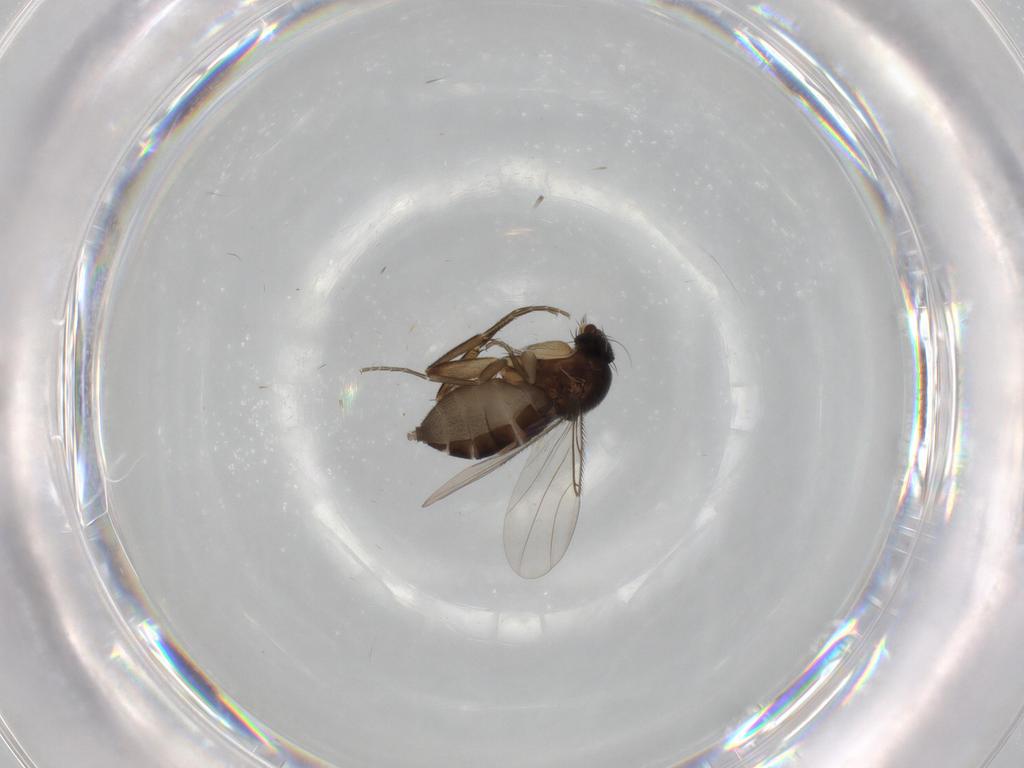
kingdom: Animalia
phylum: Arthropoda
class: Insecta
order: Diptera
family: Phoridae
